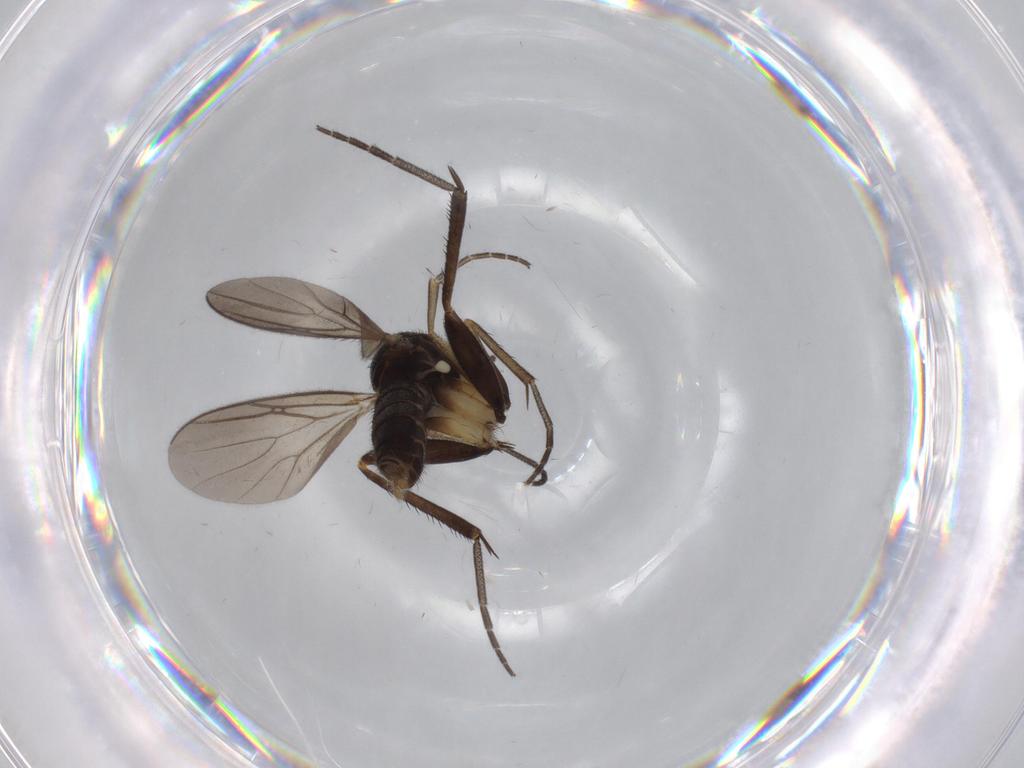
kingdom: Animalia
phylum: Arthropoda
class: Insecta
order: Diptera
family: Mycetophilidae
